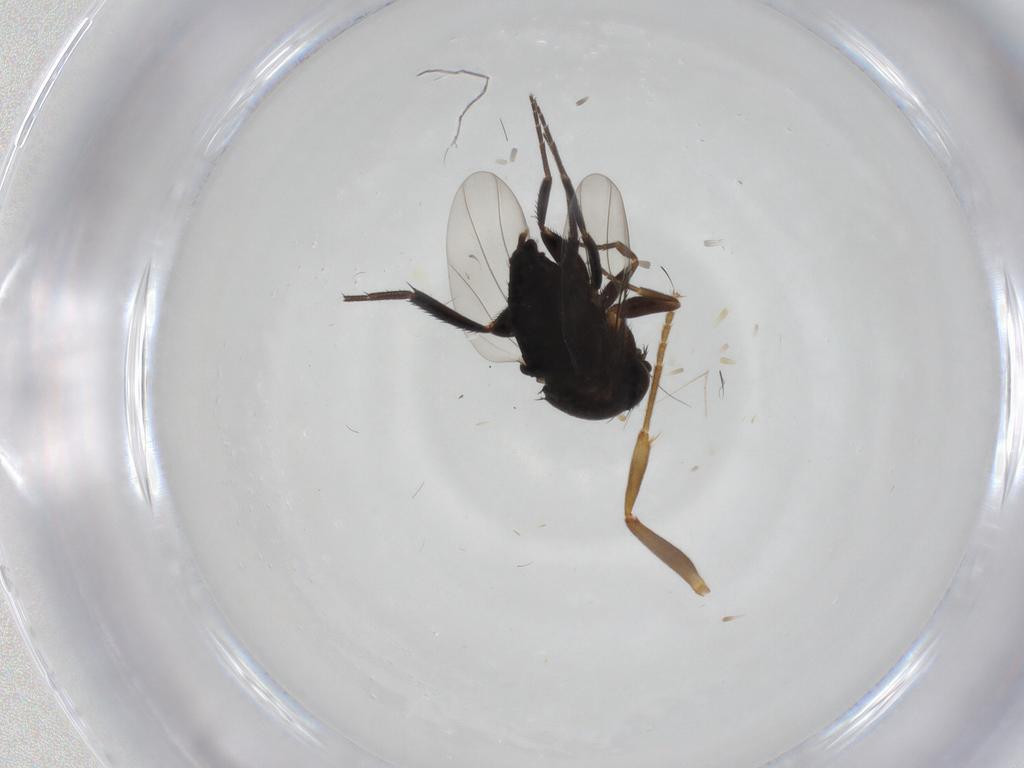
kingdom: Animalia
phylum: Arthropoda
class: Insecta
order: Diptera
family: Phoridae
